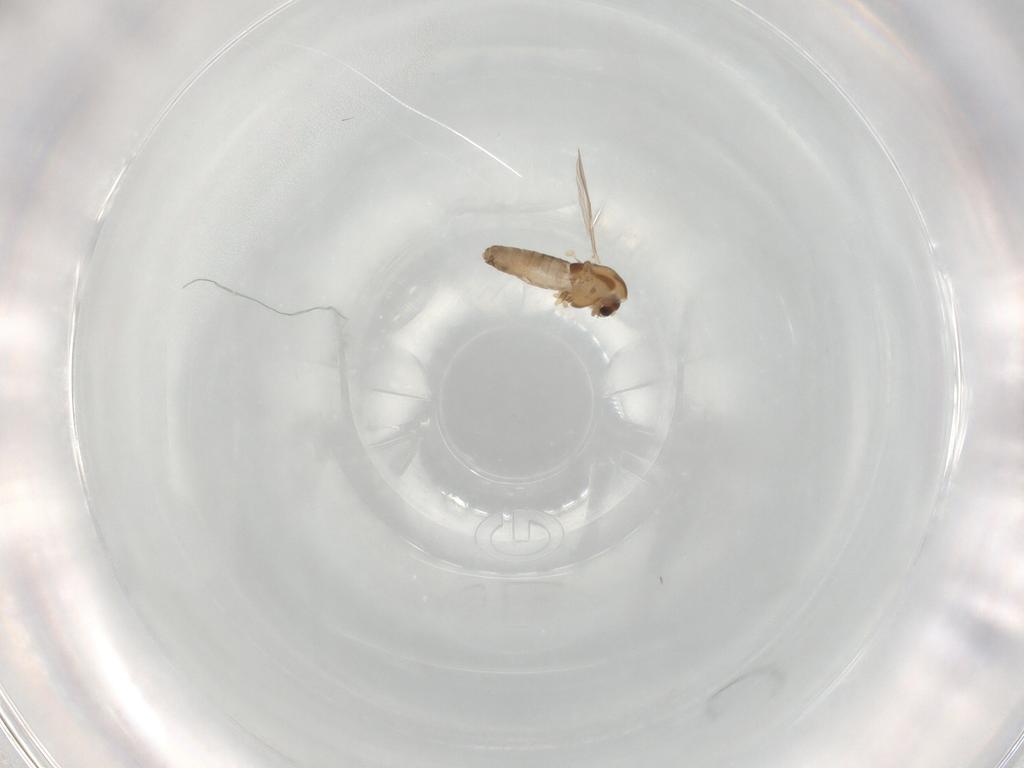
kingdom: Animalia
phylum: Arthropoda
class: Insecta
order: Diptera
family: Chironomidae
